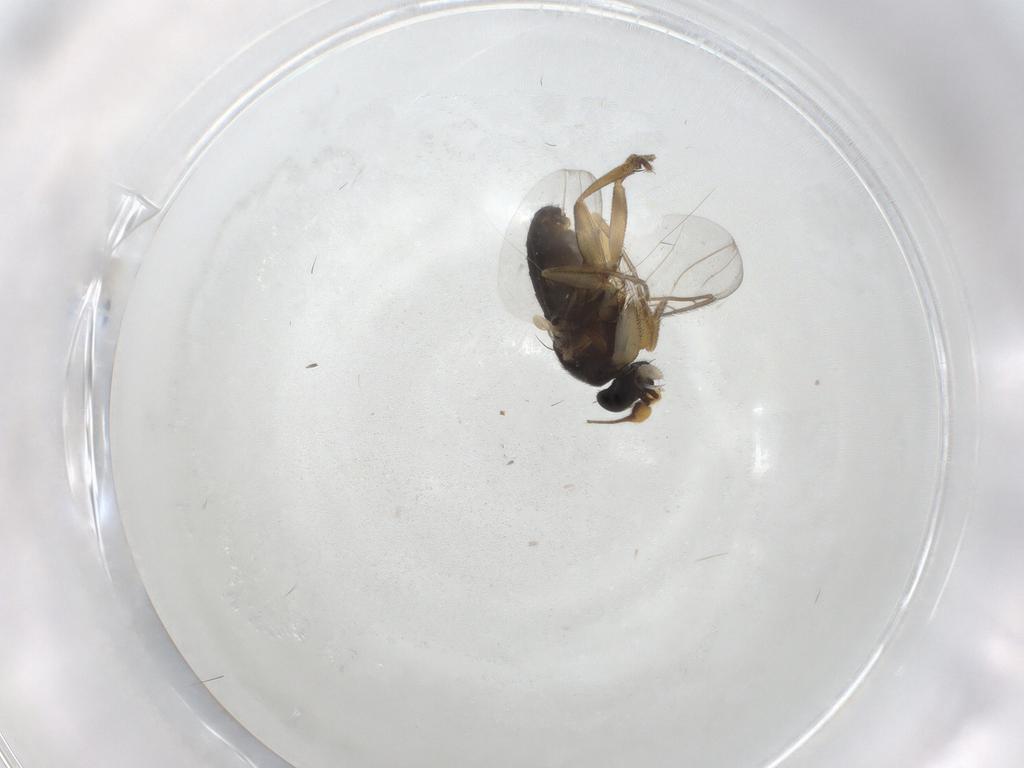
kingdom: Animalia
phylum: Arthropoda
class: Insecta
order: Diptera
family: Phoridae
